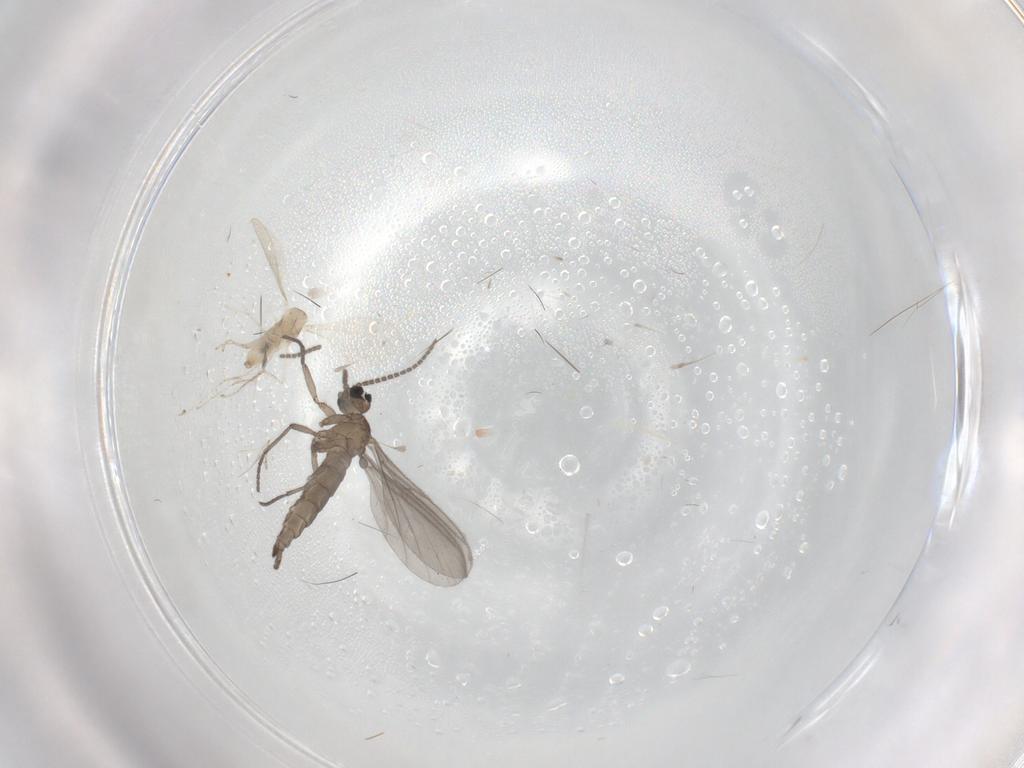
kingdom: Animalia
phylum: Arthropoda
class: Insecta
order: Diptera
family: Sciaridae
